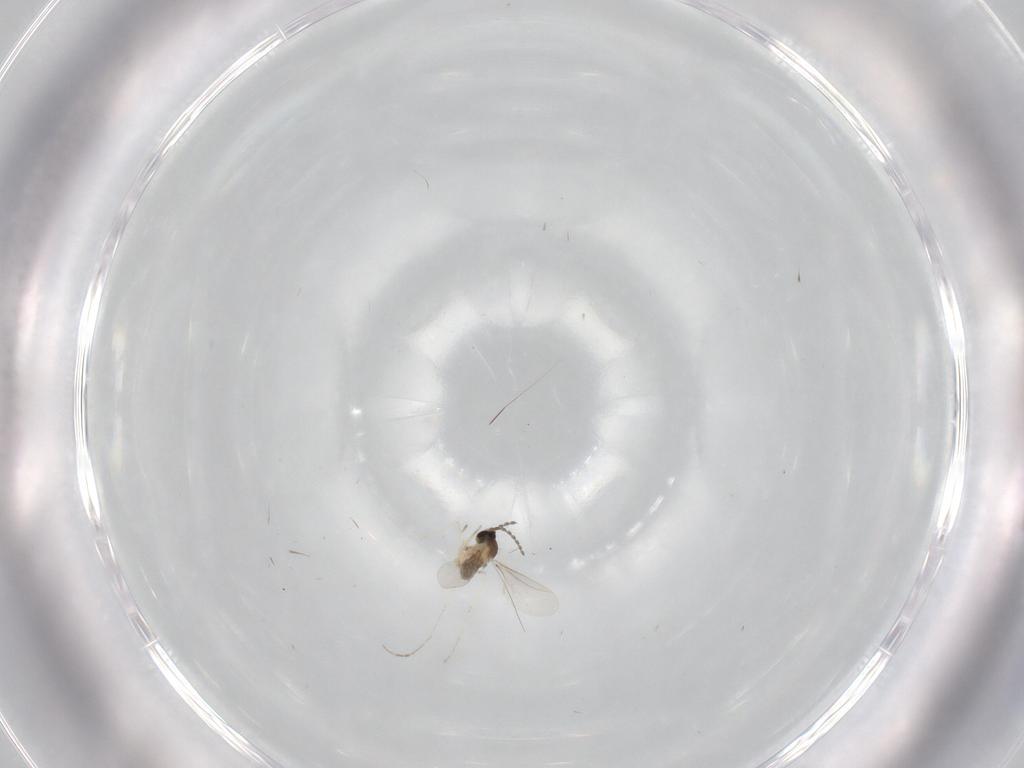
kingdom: Animalia
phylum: Arthropoda
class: Insecta
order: Diptera
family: Cecidomyiidae
